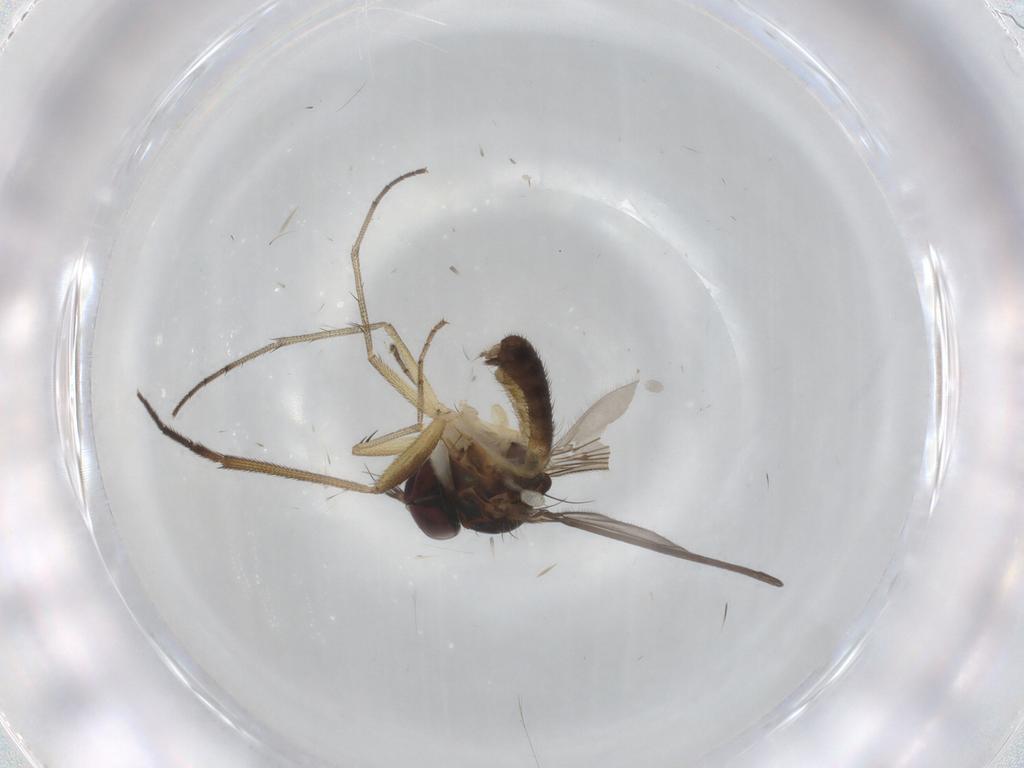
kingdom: Animalia
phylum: Arthropoda
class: Insecta
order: Diptera
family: Dolichopodidae
